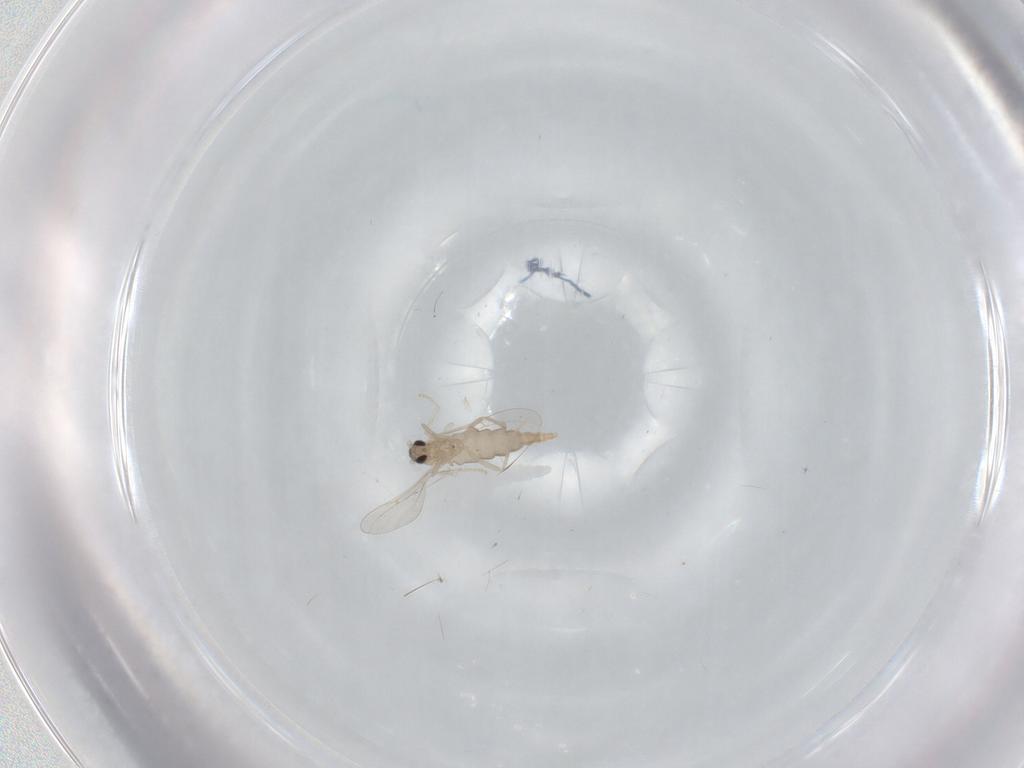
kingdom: Animalia
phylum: Arthropoda
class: Insecta
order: Diptera
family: Cecidomyiidae
